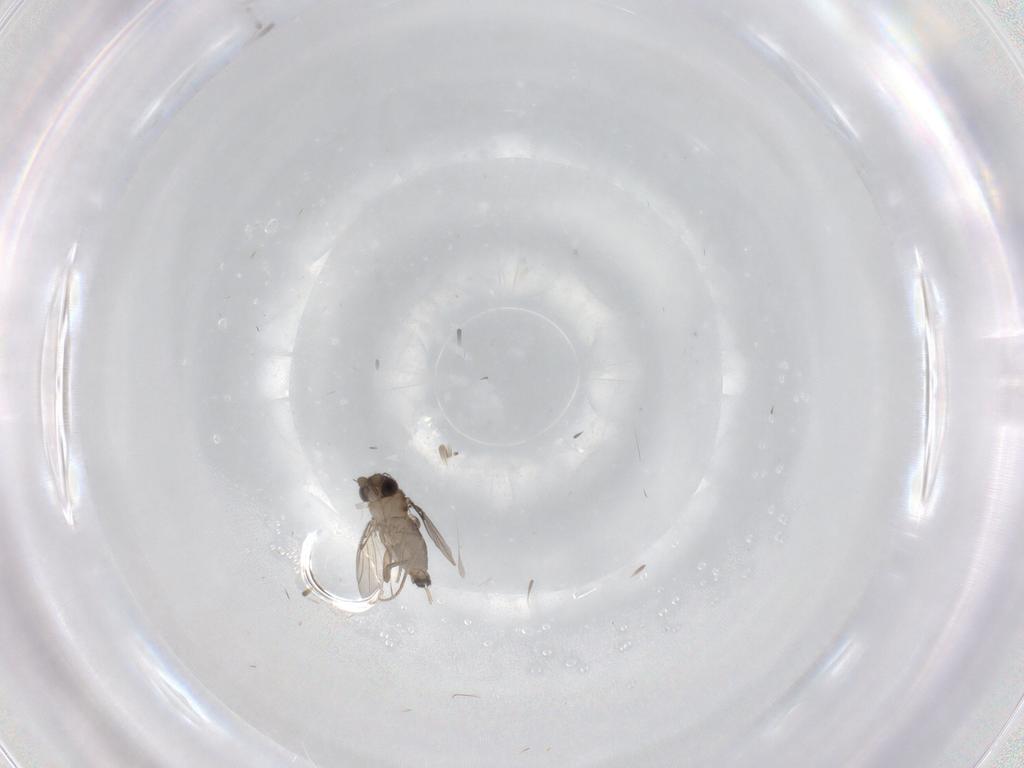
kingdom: Animalia
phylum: Arthropoda
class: Insecta
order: Diptera
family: Phoridae
